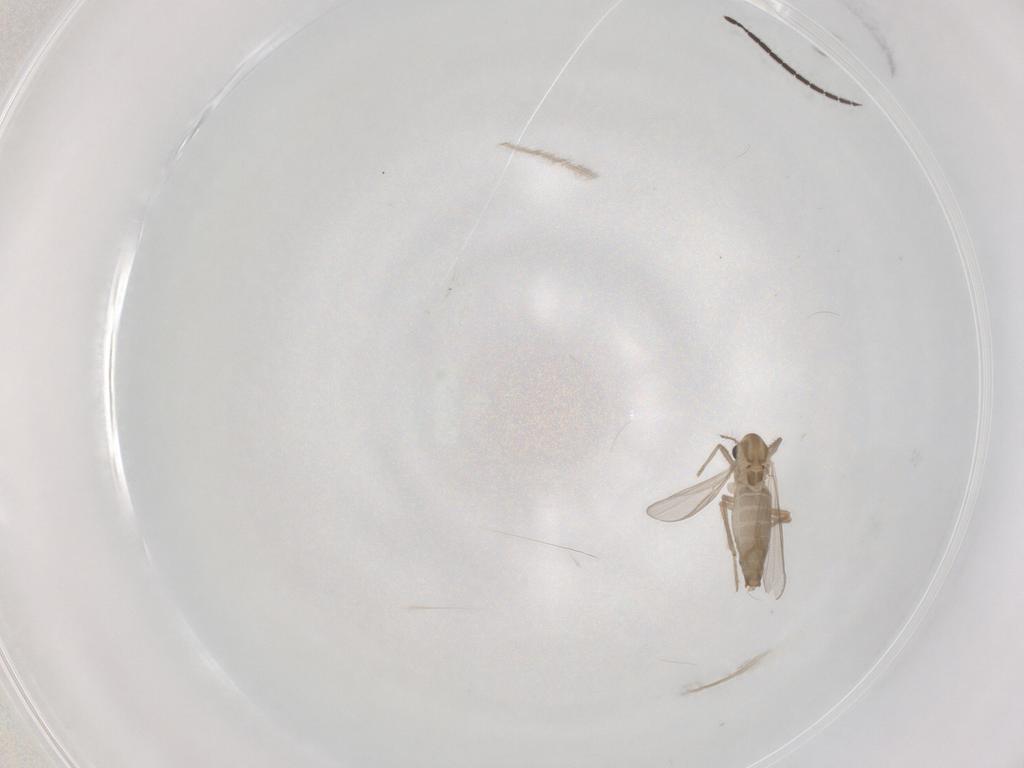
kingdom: Animalia
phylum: Arthropoda
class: Insecta
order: Diptera
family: Sciaridae
